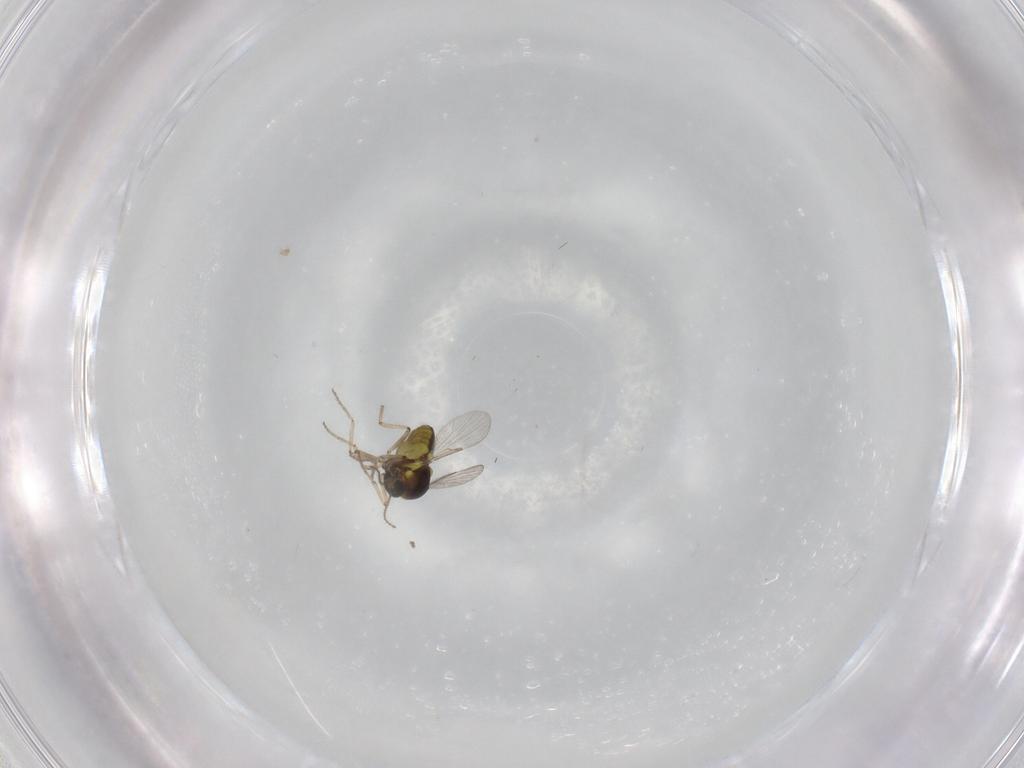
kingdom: Animalia
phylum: Arthropoda
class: Insecta
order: Diptera
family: Ceratopogonidae
